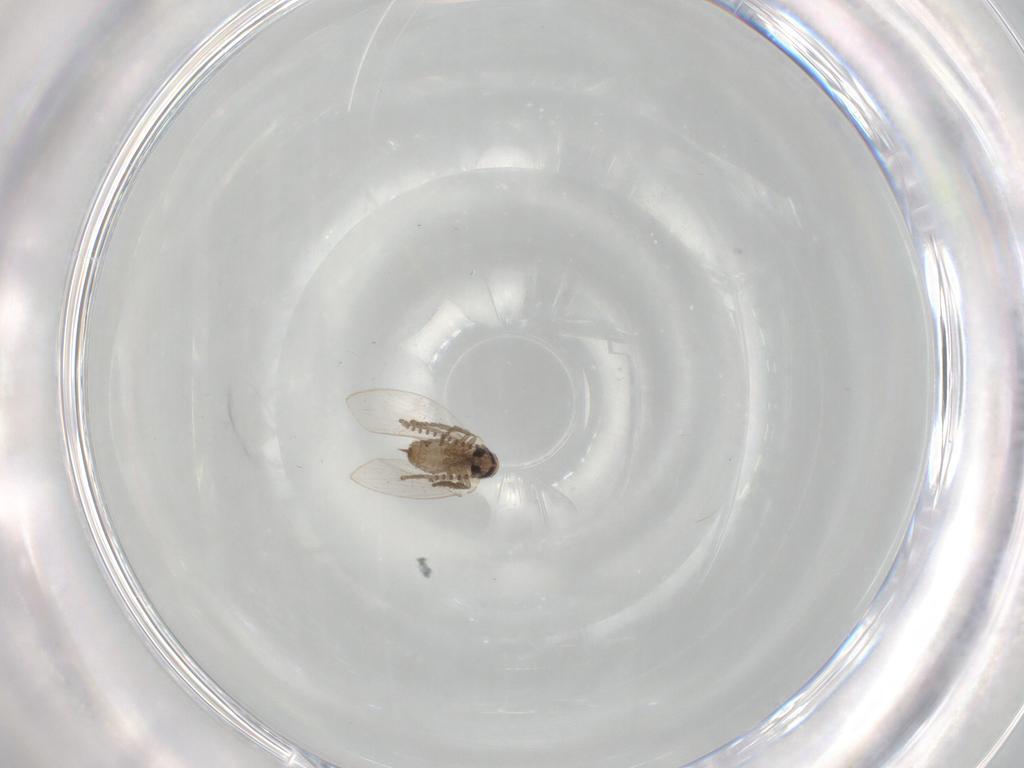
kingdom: Animalia
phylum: Arthropoda
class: Insecta
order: Diptera
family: Psychodidae
